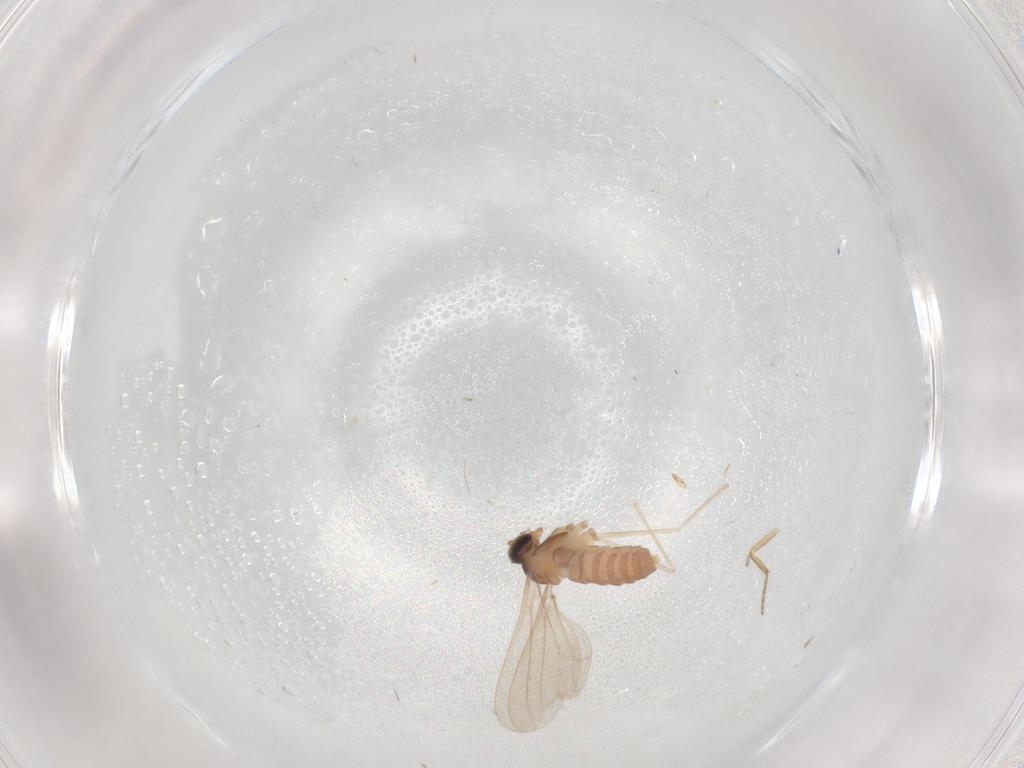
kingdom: Animalia
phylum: Arthropoda
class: Insecta
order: Diptera
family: Cecidomyiidae
